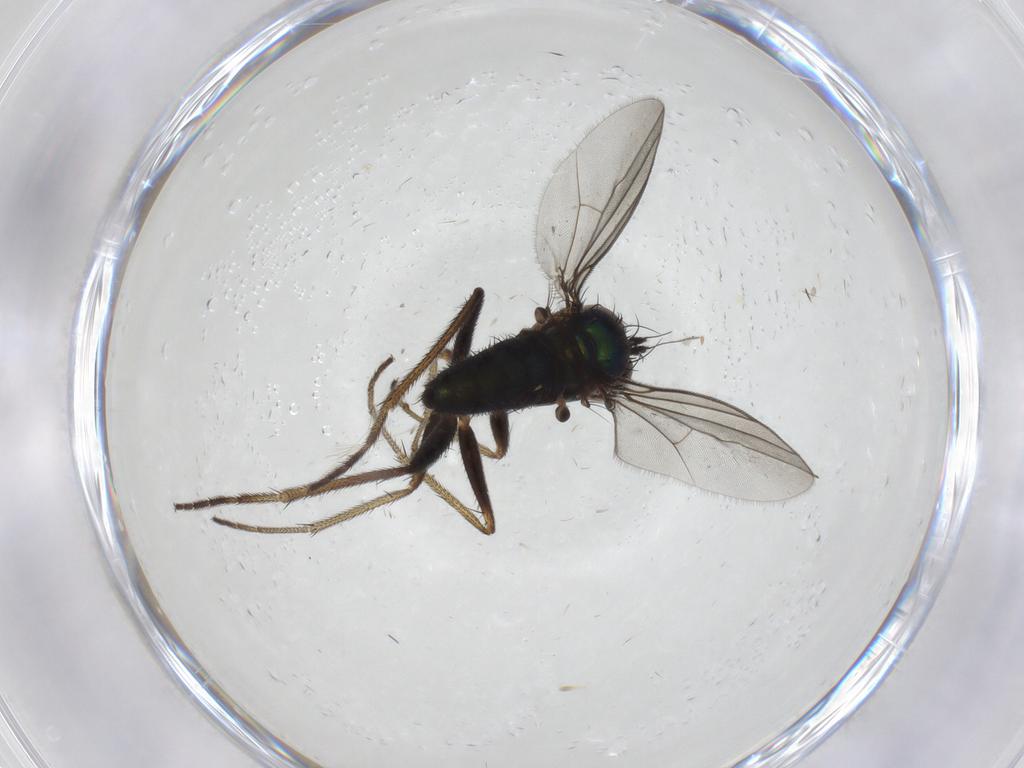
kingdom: Animalia
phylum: Arthropoda
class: Insecta
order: Diptera
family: Dolichopodidae
